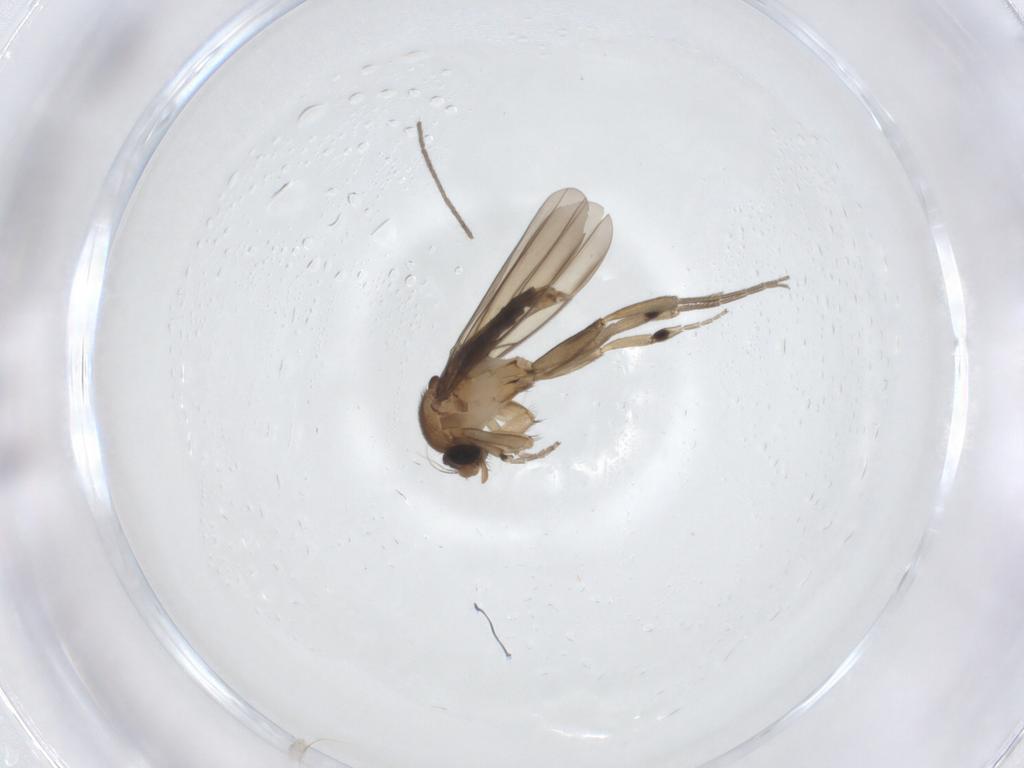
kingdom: Animalia
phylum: Arthropoda
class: Insecta
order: Diptera
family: Phoridae
